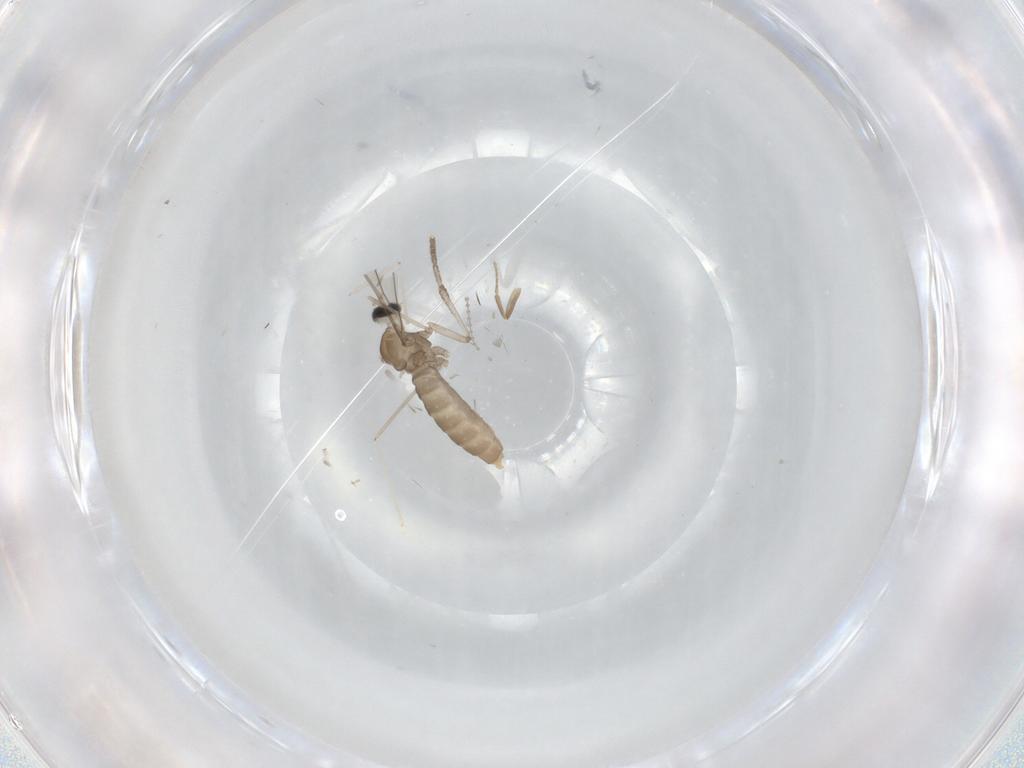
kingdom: Animalia
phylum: Arthropoda
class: Insecta
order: Diptera
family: Cecidomyiidae
